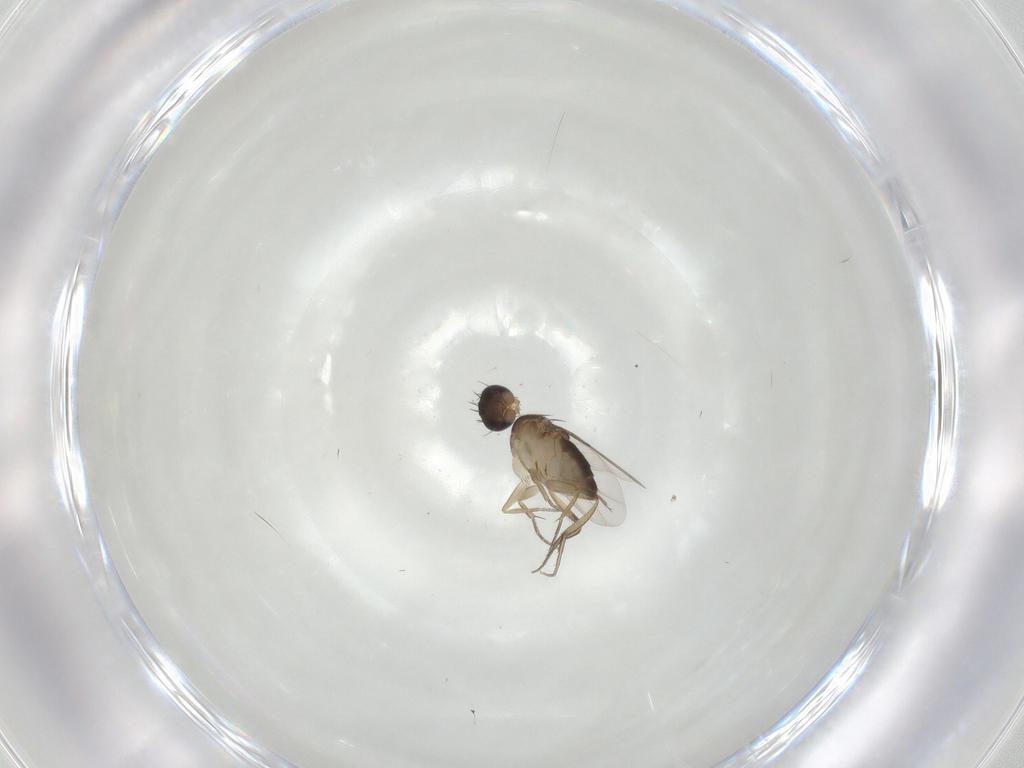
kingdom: Animalia
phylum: Arthropoda
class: Insecta
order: Diptera
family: Phoridae
